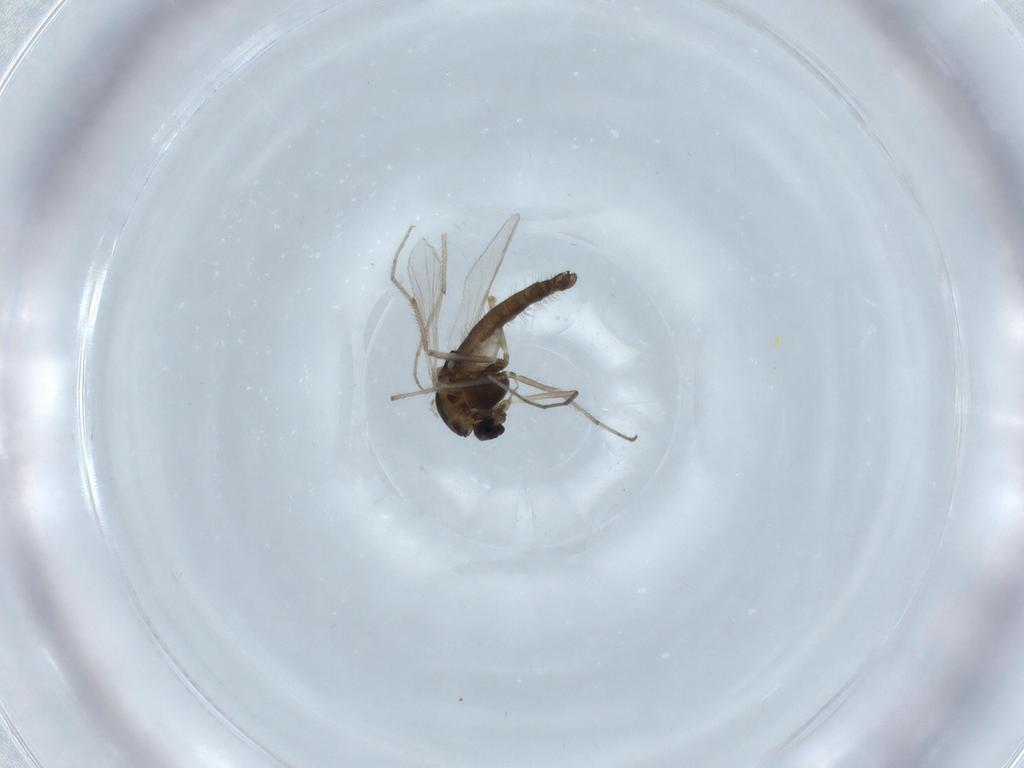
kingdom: Animalia
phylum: Arthropoda
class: Insecta
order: Diptera
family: Chironomidae
